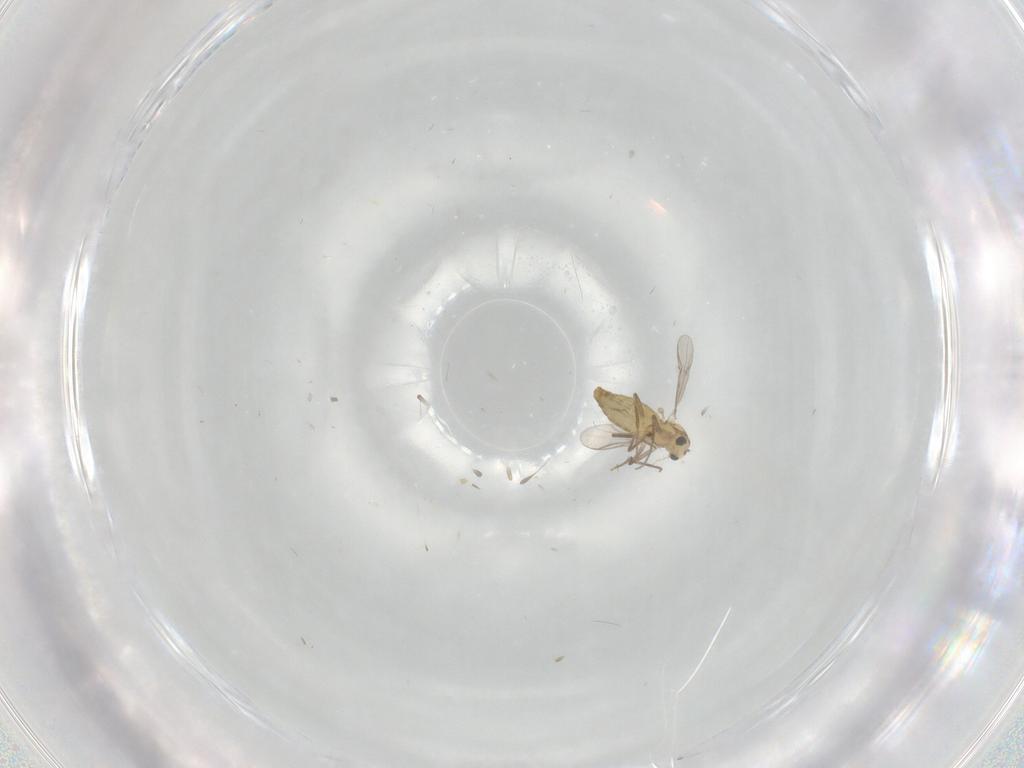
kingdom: Animalia
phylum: Arthropoda
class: Insecta
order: Diptera
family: Chironomidae
